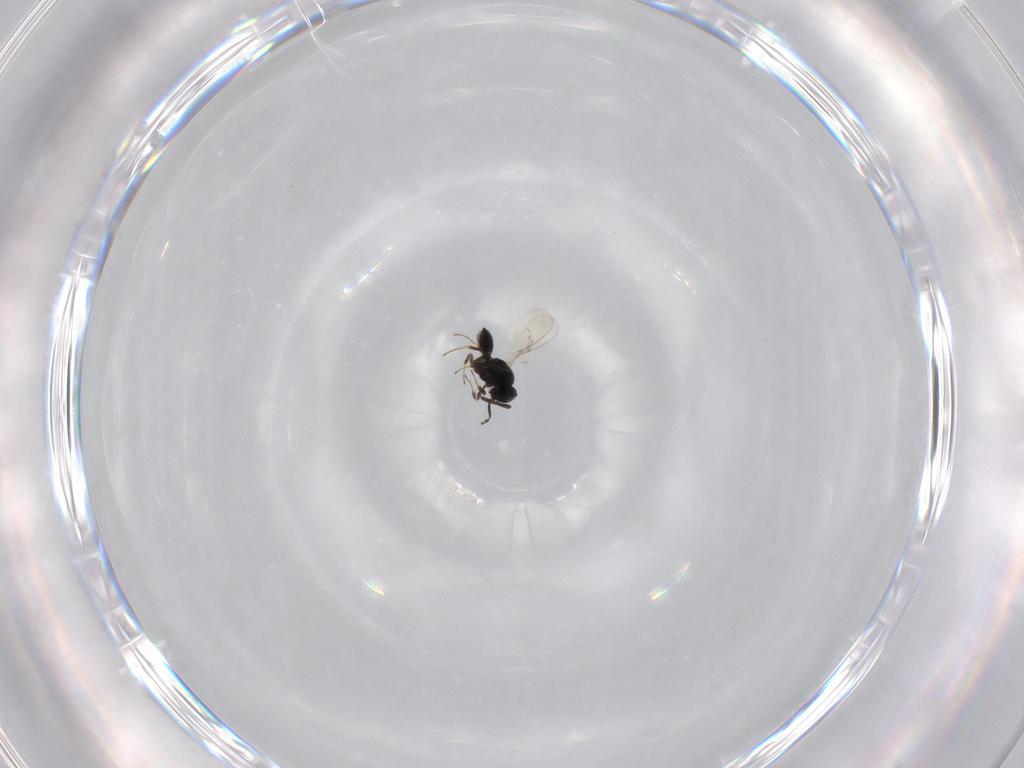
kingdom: Animalia
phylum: Arthropoda
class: Insecta
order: Hymenoptera
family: Scelionidae
